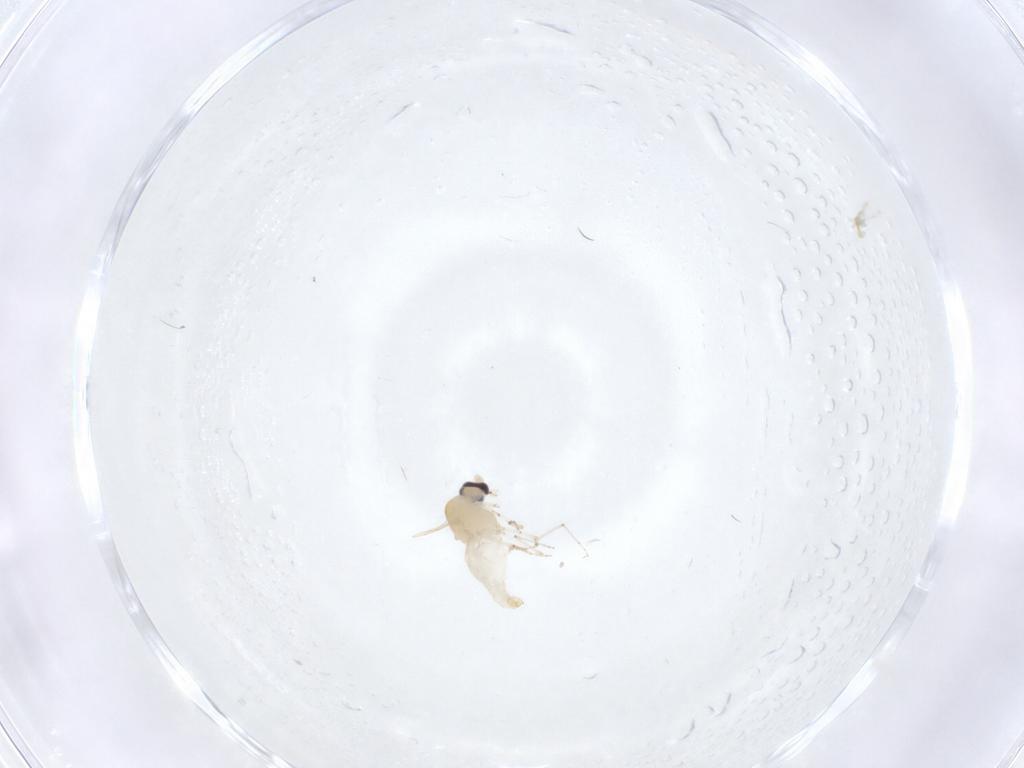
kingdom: Animalia
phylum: Arthropoda
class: Insecta
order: Diptera
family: Ceratopogonidae
